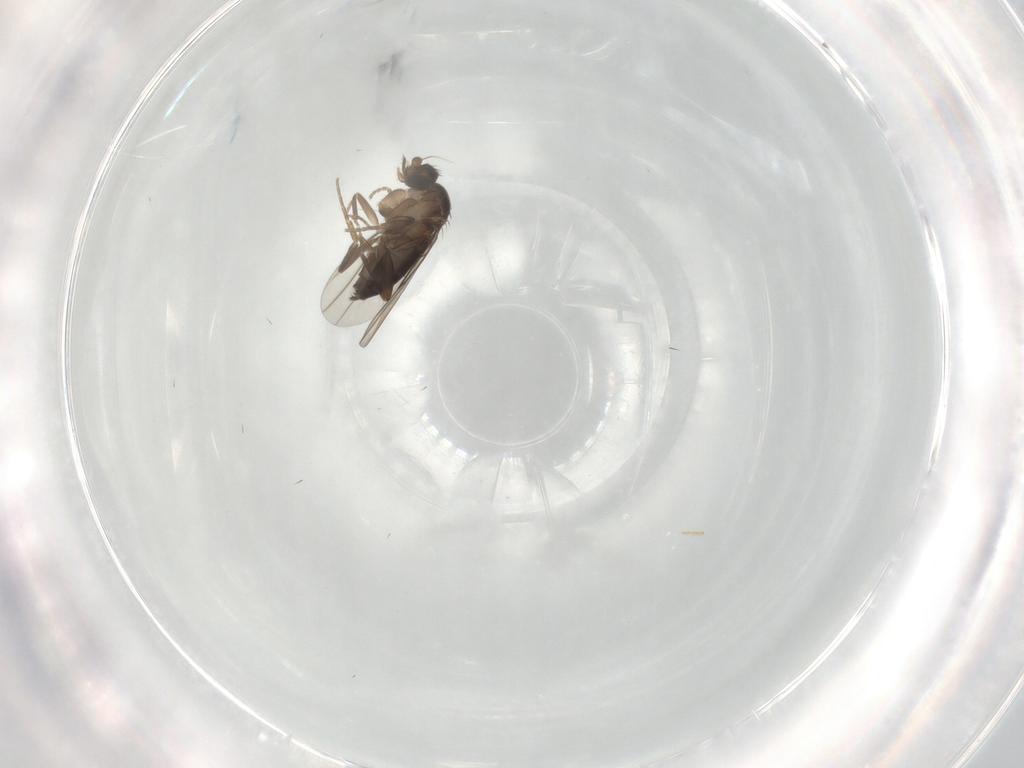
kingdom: Animalia
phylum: Arthropoda
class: Insecta
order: Diptera
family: Phoridae
